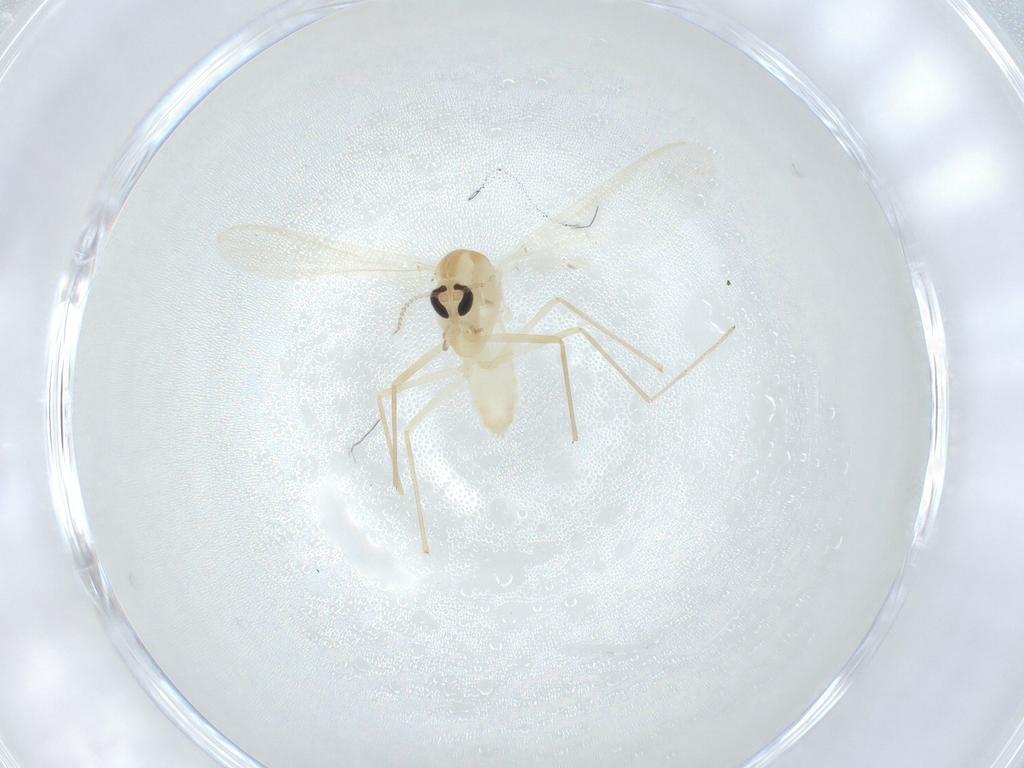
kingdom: Animalia
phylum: Arthropoda
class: Insecta
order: Diptera
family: Chironomidae
